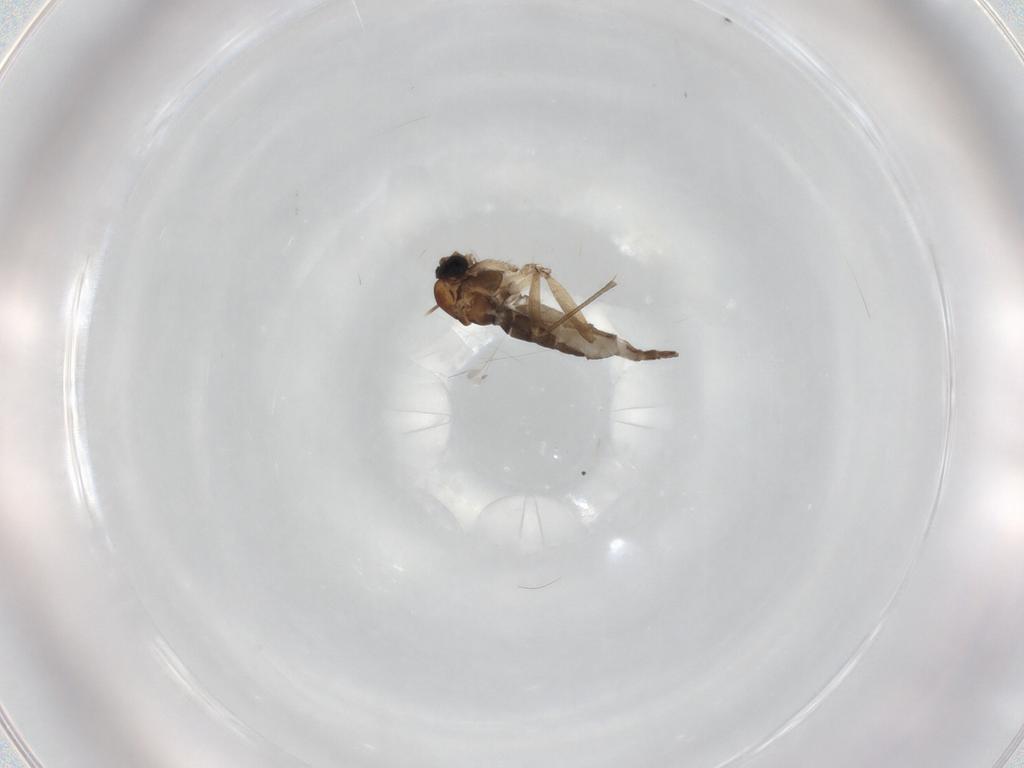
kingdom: Animalia
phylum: Arthropoda
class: Insecta
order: Diptera
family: Sciaridae
